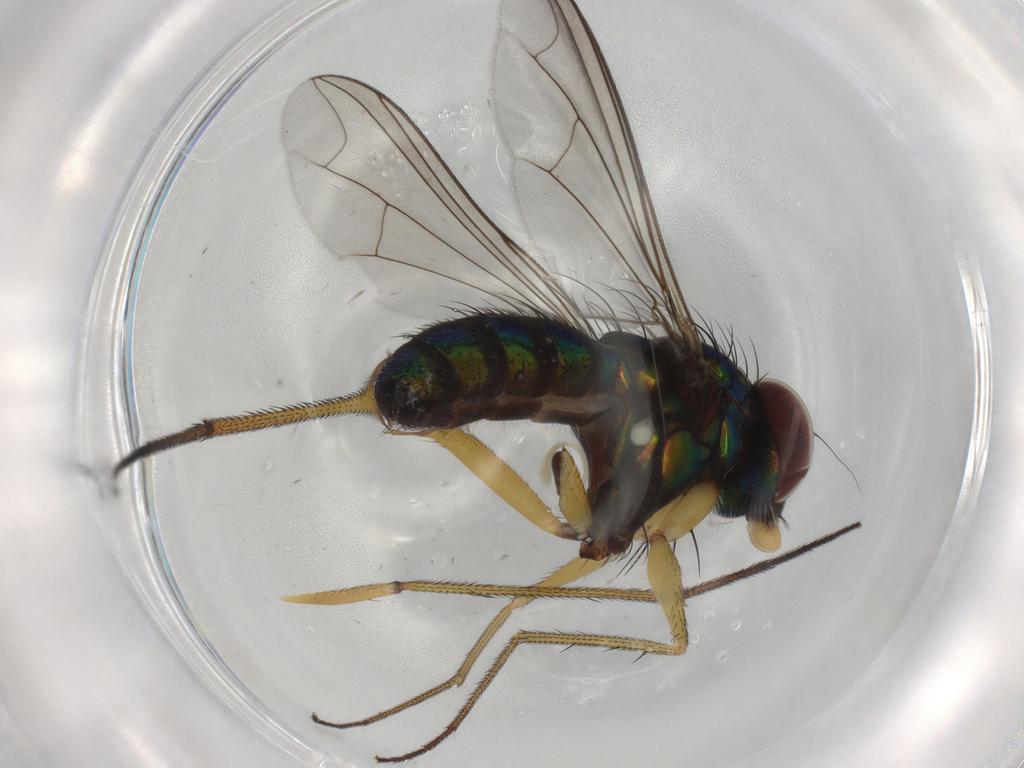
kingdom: Animalia
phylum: Arthropoda
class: Insecta
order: Diptera
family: Dolichopodidae
